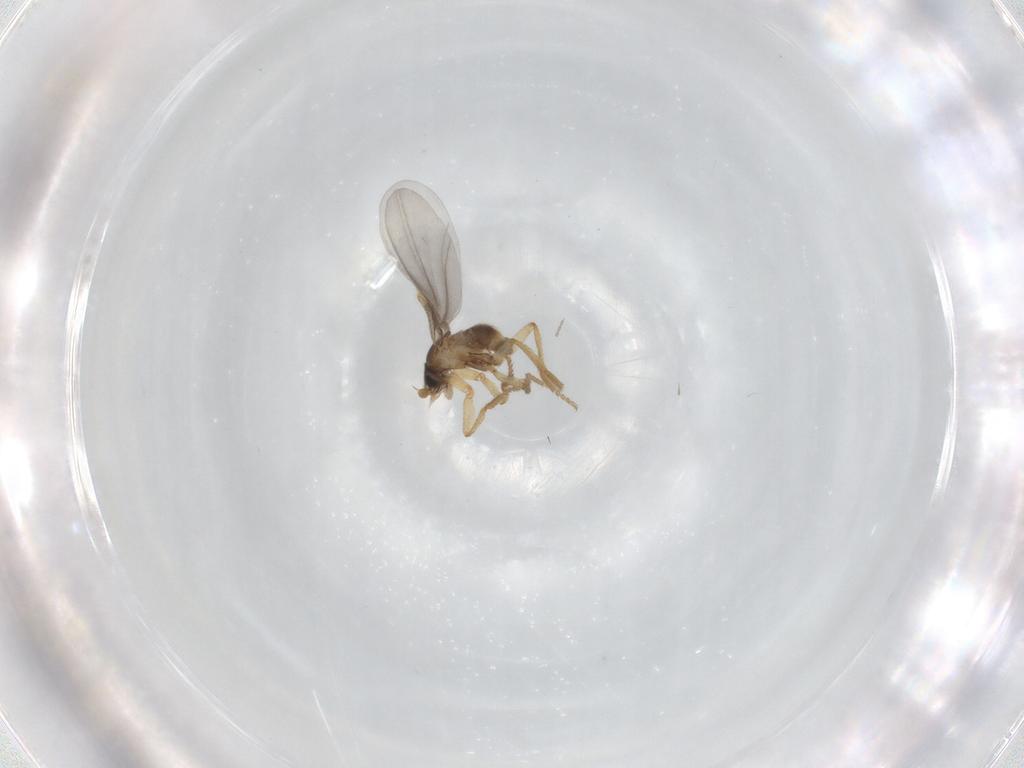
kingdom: Animalia
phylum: Arthropoda
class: Insecta
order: Diptera
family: Phoridae
